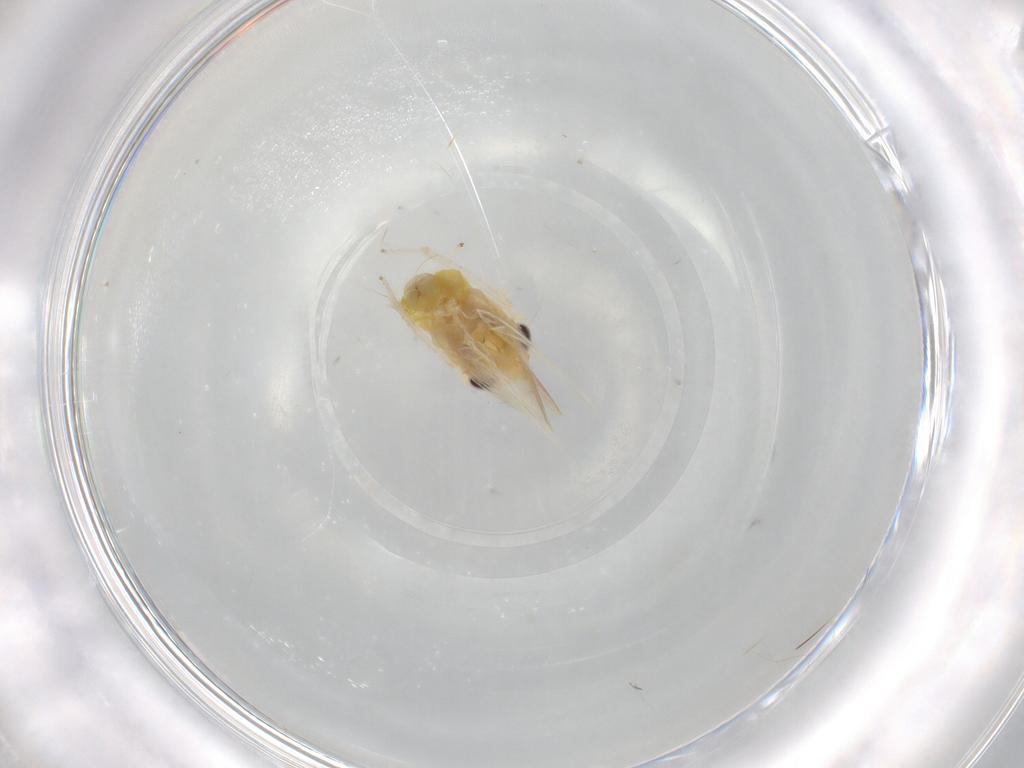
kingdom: Animalia
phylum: Arthropoda
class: Insecta
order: Hemiptera
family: Cicadellidae
